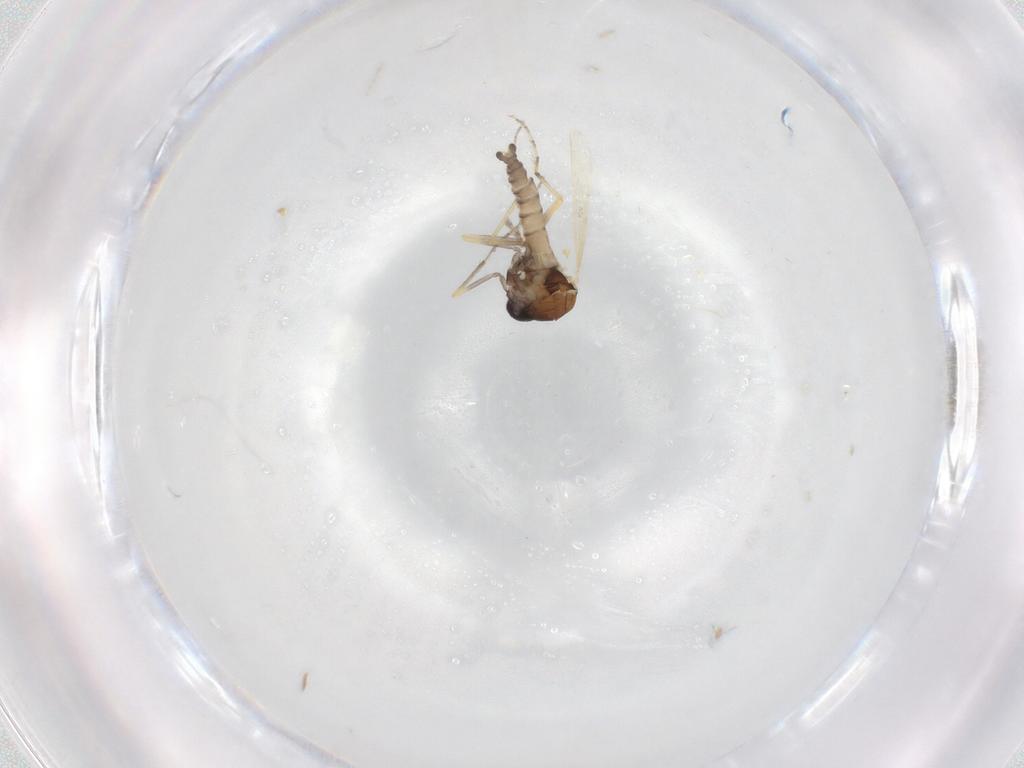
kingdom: Animalia
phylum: Arthropoda
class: Insecta
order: Diptera
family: Ceratopogonidae
